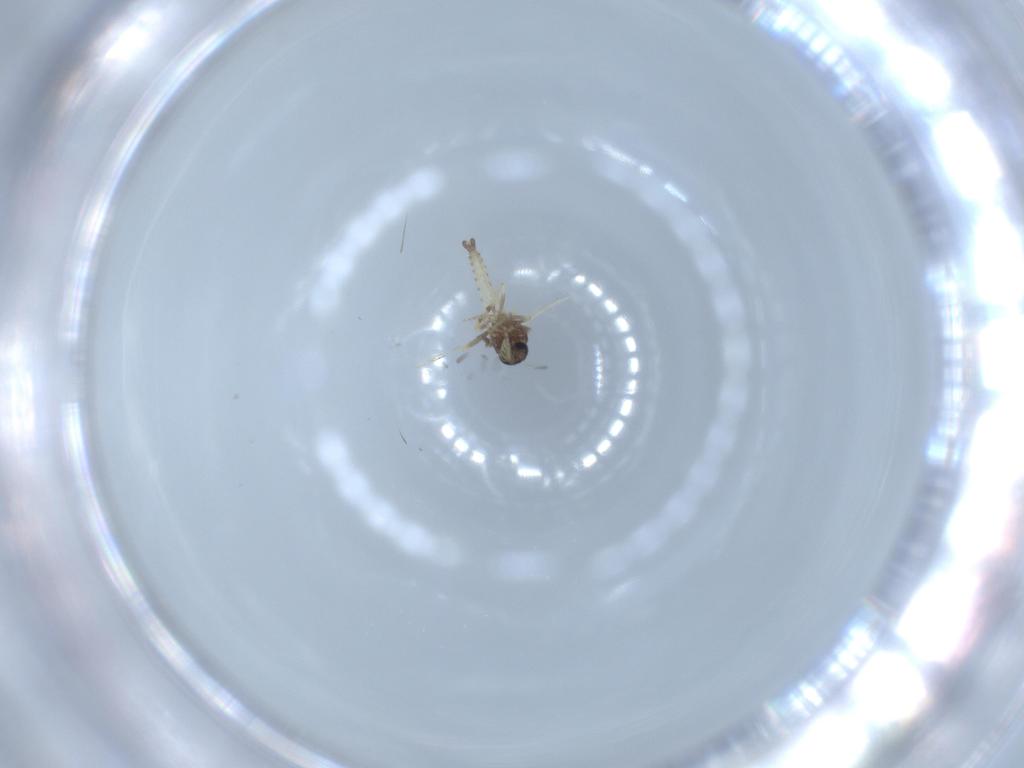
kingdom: Animalia
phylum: Arthropoda
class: Insecta
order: Diptera
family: Ceratopogonidae
